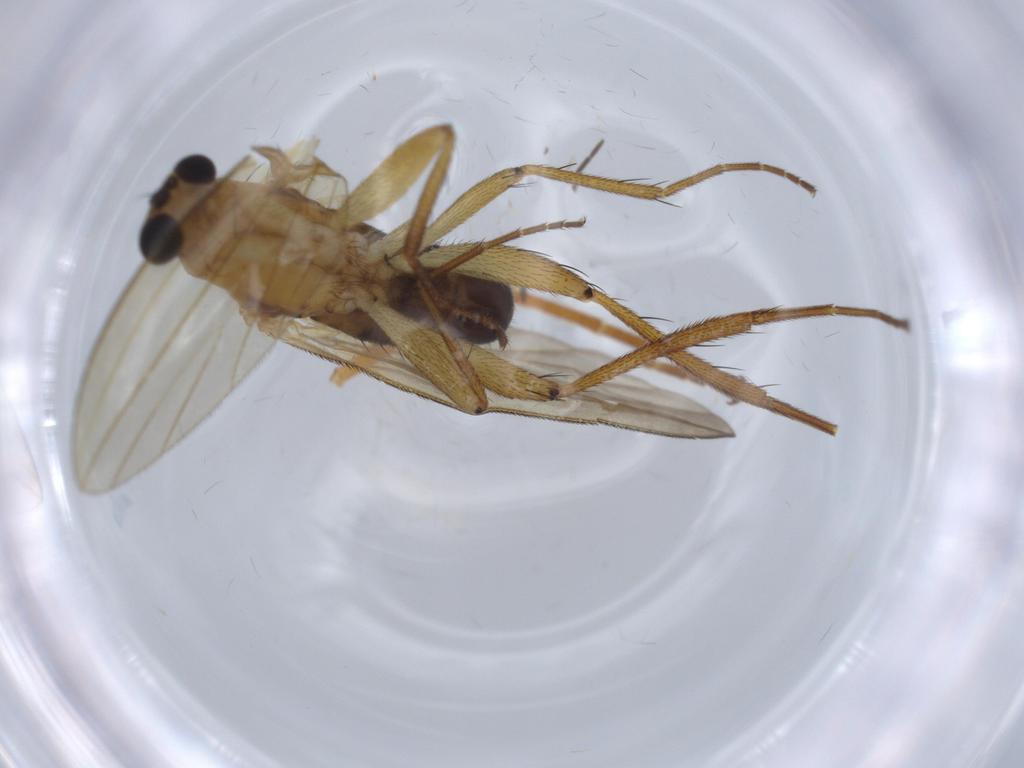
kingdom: Animalia
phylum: Arthropoda
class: Insecta
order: Diptera
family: Lonchopteridae
